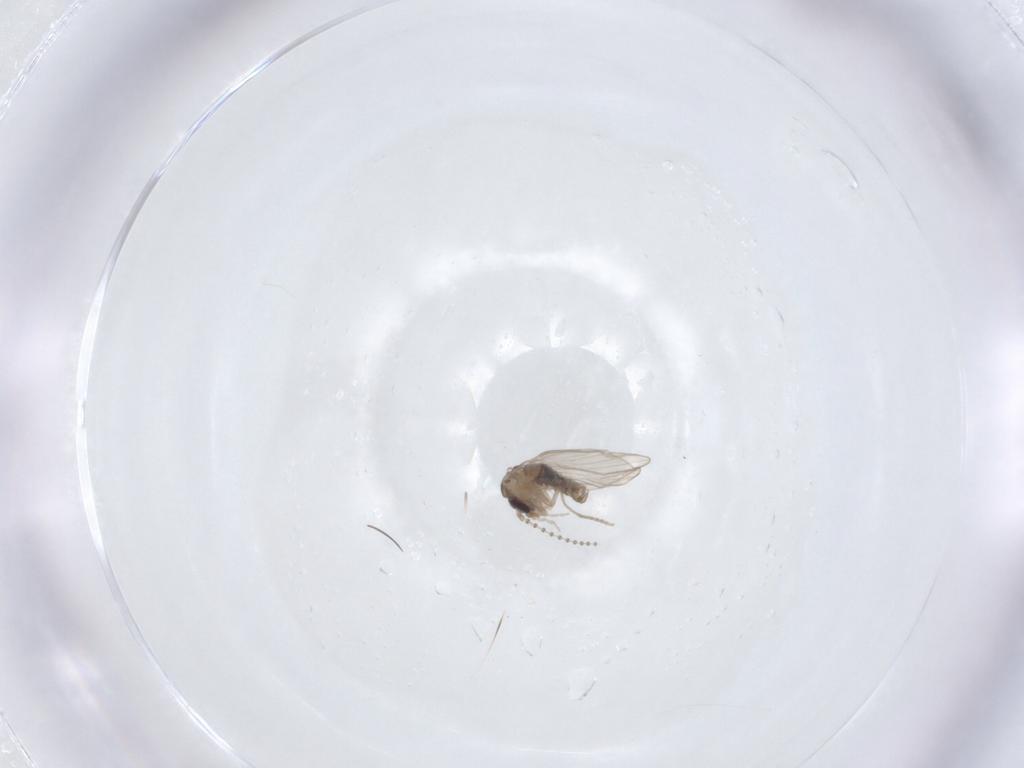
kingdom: Animalia
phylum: Arthropoda
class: Insecta
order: Diptera
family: Psychodidae
